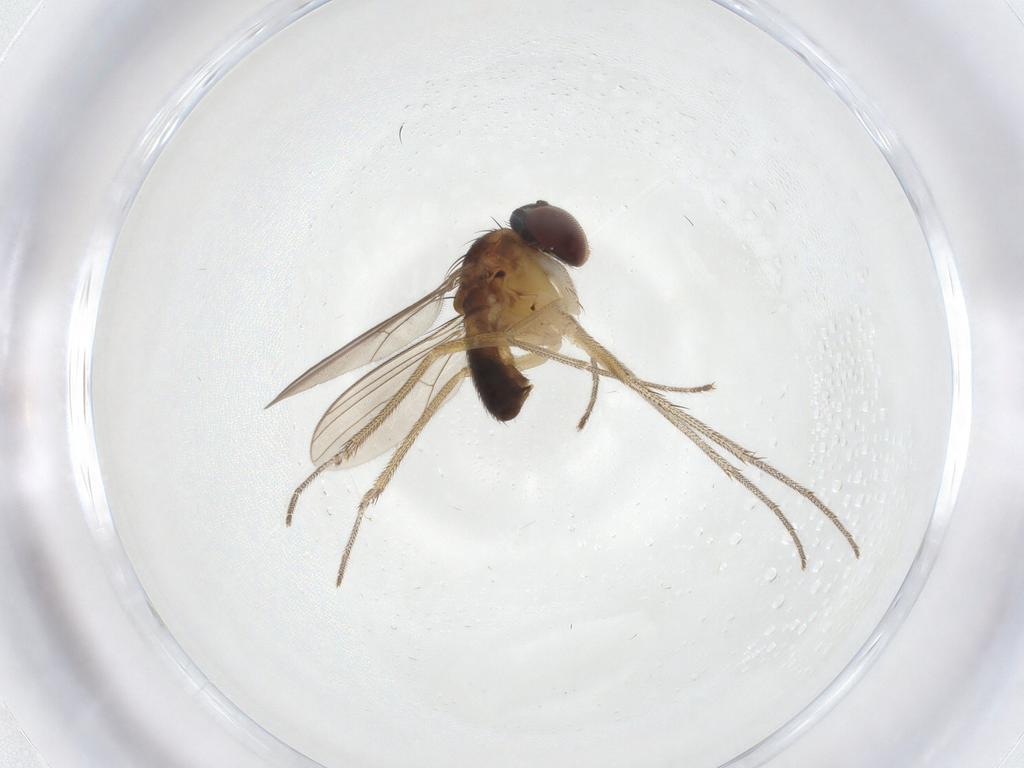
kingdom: Animalia
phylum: Arthropoda
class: Insecta
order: Diptera
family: Dolichopodidae
